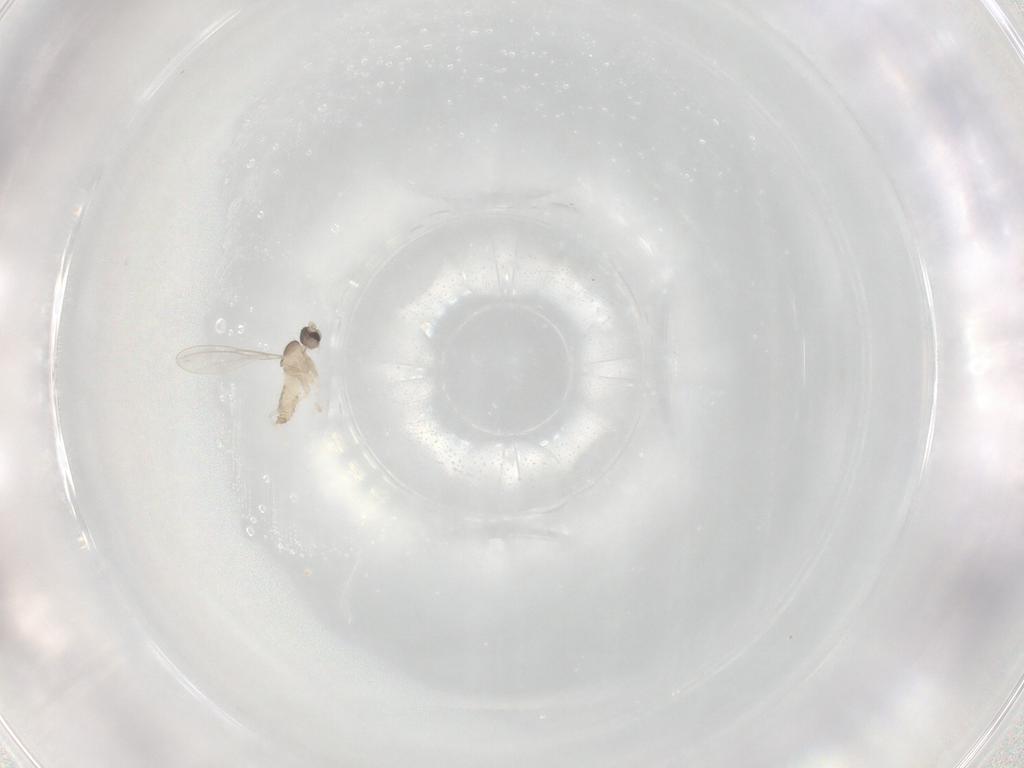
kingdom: Animalia
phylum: Arthropoda
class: Insecta
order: Diptera
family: Cecidomyiidae
